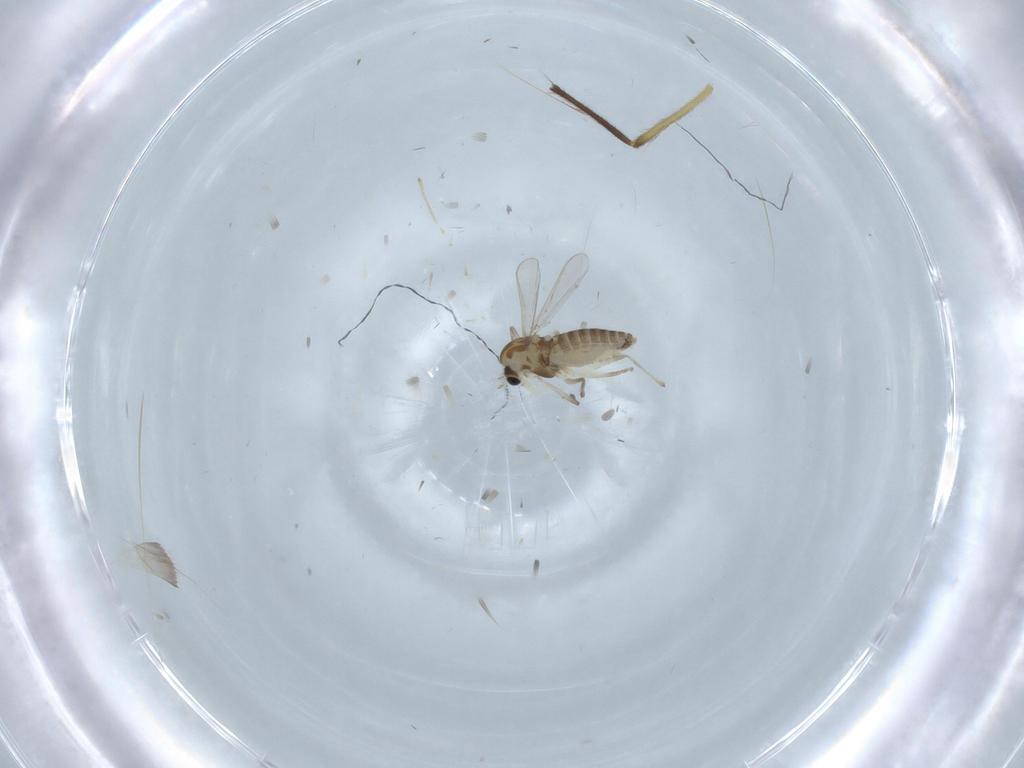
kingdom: Animalia
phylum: Arthropoda
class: Insecta
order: Diptera
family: Chironomidae
